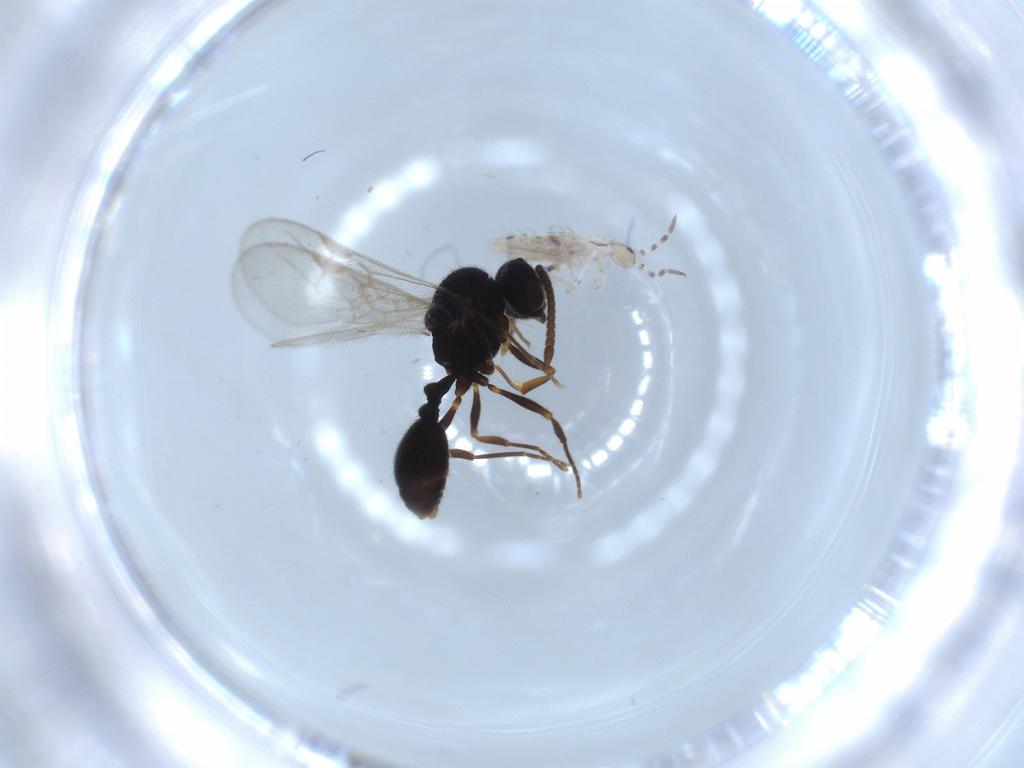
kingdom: Animalia
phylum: Arthropoda
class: Collembola
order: Entomobryomorpha
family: Entomobryidae
